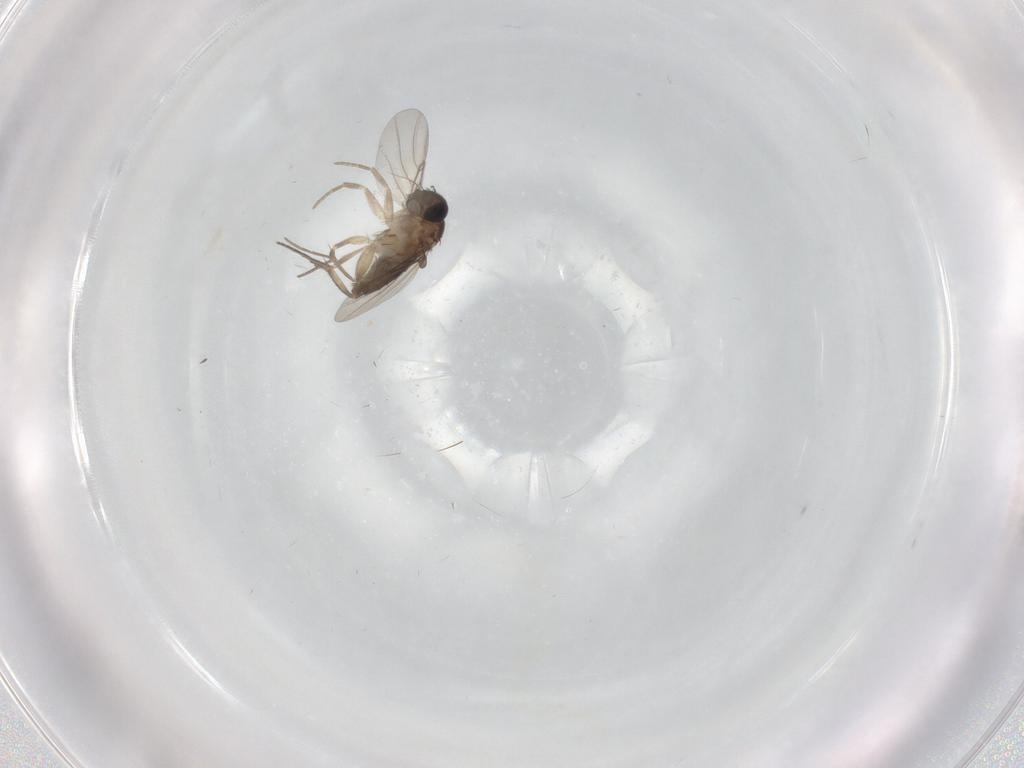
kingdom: Animalia
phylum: Arthropoda
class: Insecta
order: Diptera
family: Phoridae
